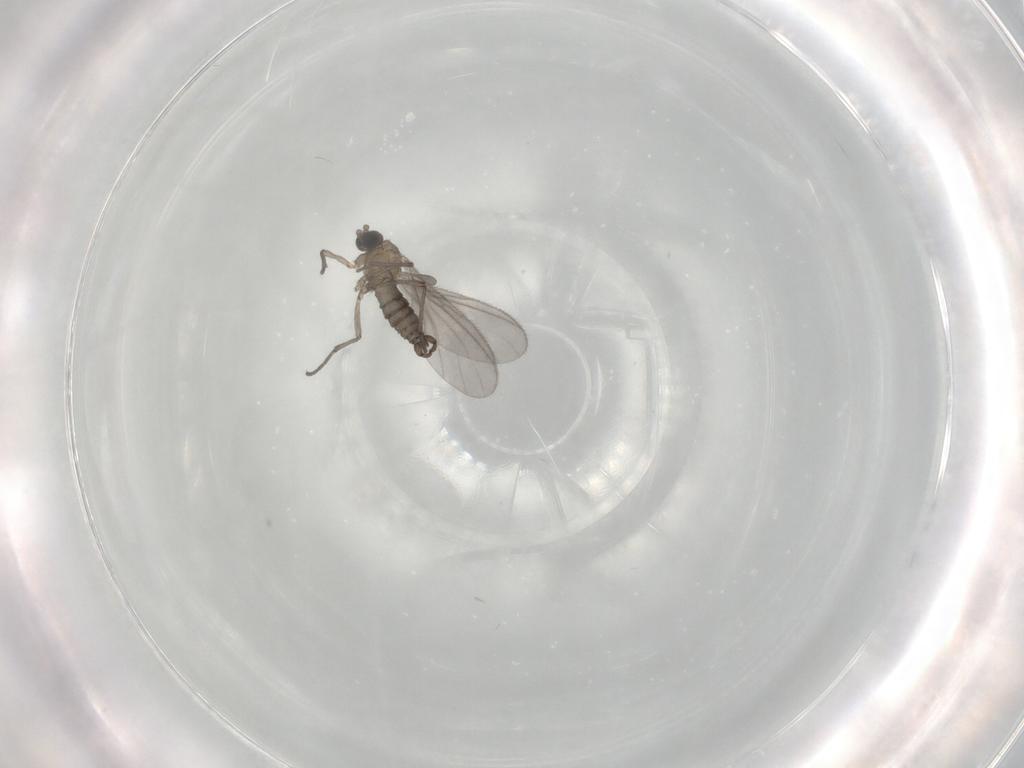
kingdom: Animalia
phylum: Arthropoda
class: Insecta
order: Diptera
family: Sciaridae
